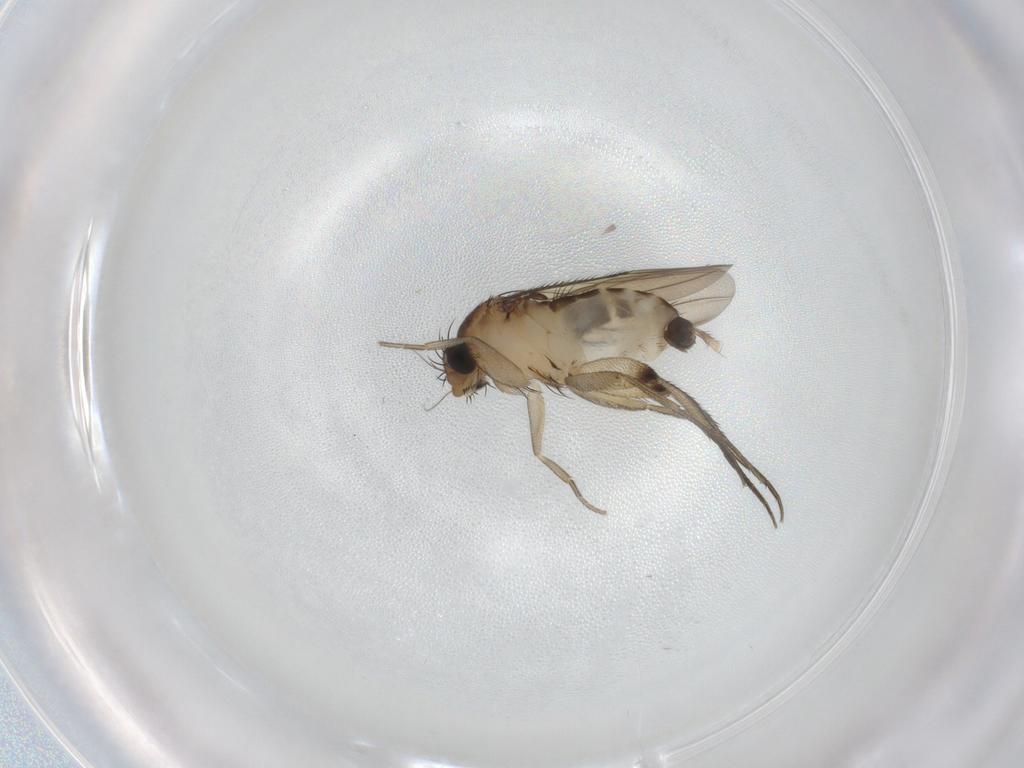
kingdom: Animalia
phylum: Arthropoda
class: Insecta
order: Diptera
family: Phoridae
